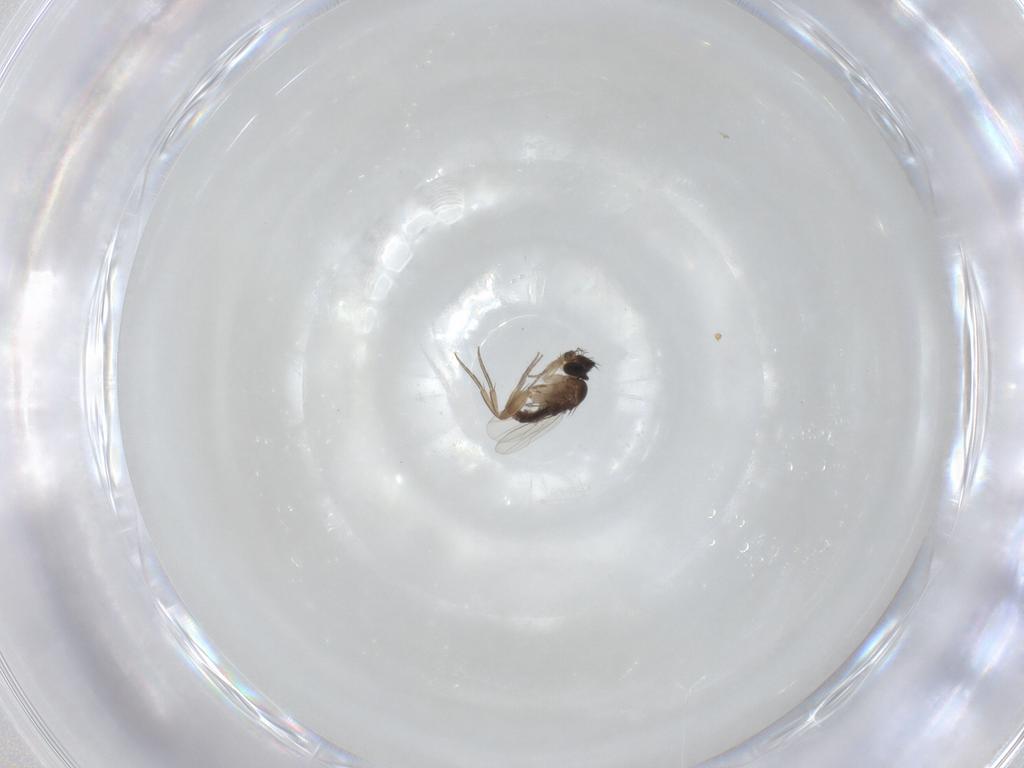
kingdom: Animalia
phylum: Arthropoda
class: Insecta
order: Diptera
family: Phoridae
